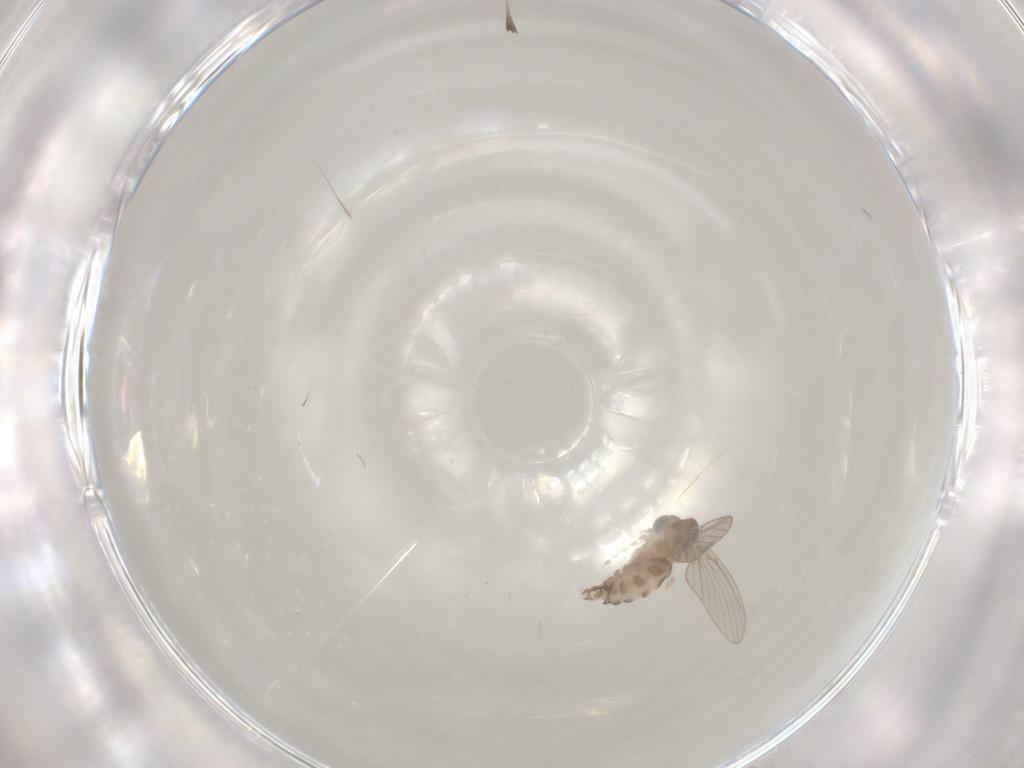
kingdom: Animalia
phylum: Arthropoda
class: Insecta
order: Diptera
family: Psychodidae
